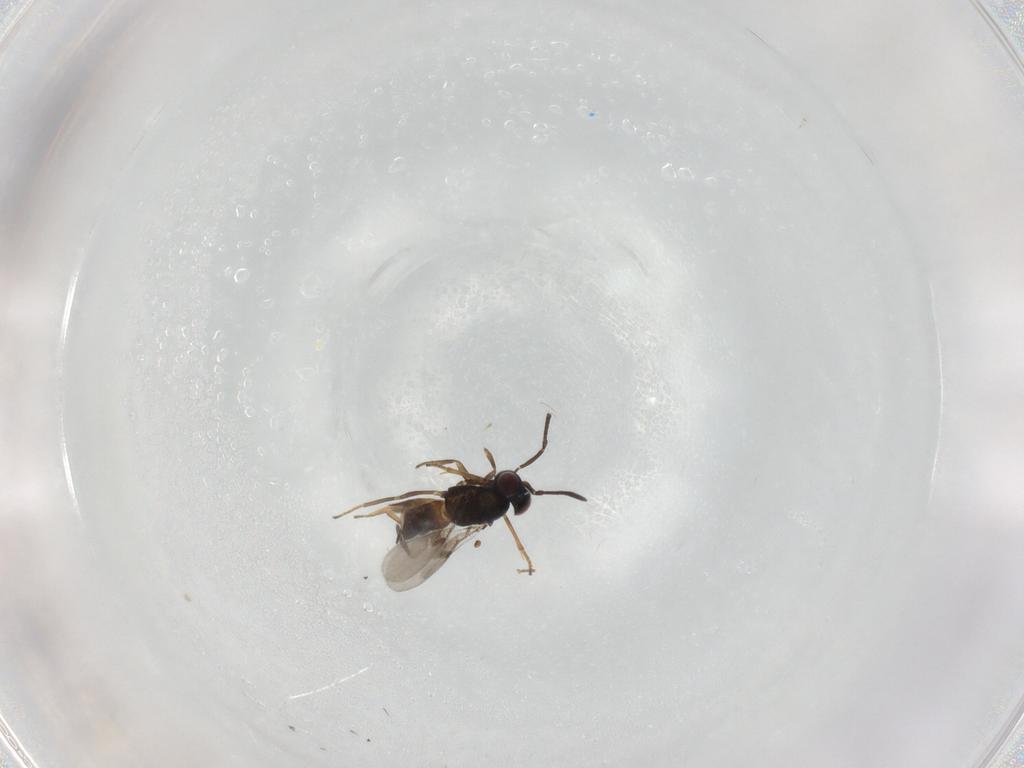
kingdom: Animalia
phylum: Arthropoda
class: Insecta
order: Hymenoptera
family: Encyrtidae
